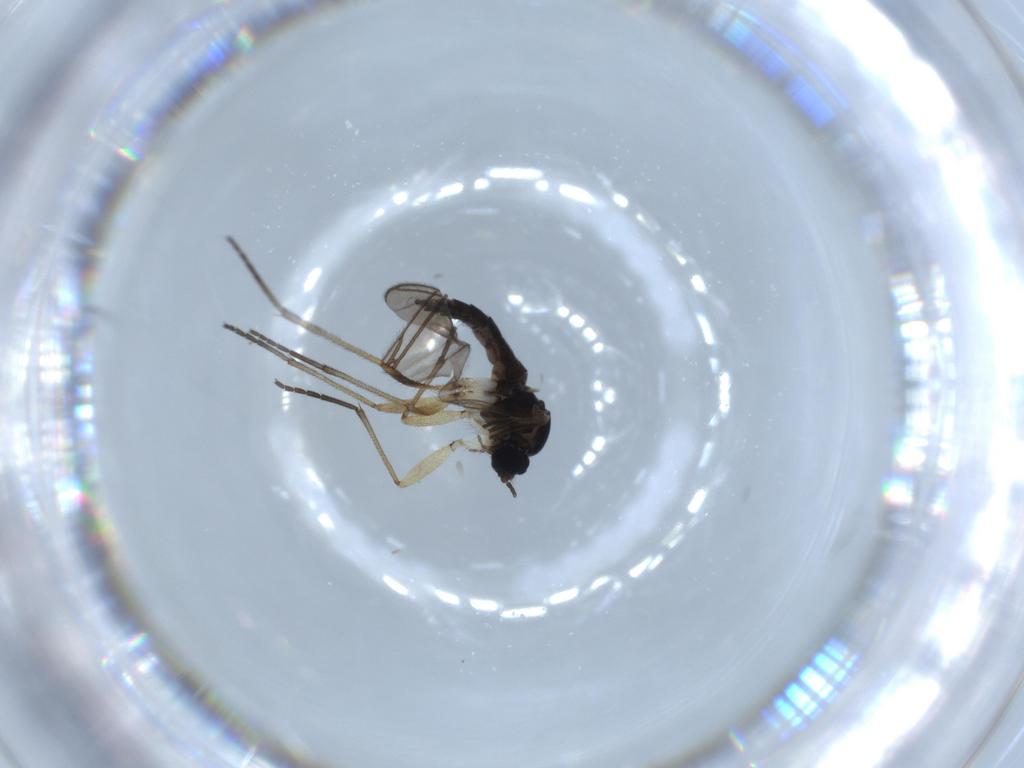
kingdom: Animalia
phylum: Arthropoda
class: Insecta
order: Diptera
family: Sciaridae
